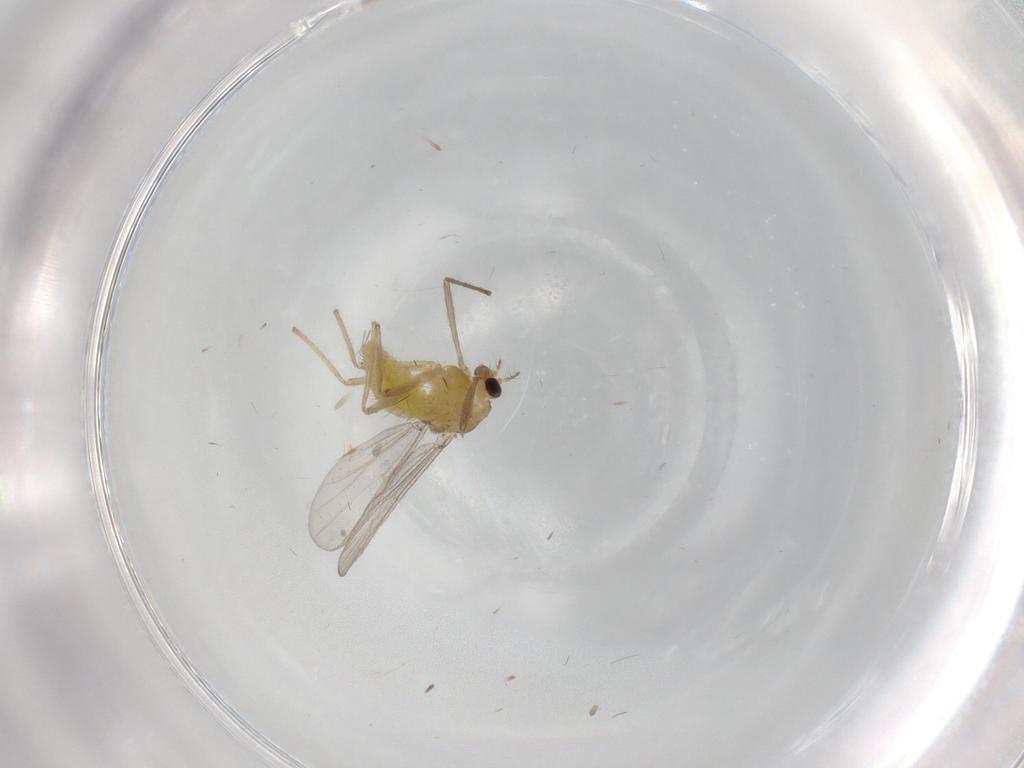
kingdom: Animalia
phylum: Arthropoda
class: Insecta
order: Diptera
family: Chironomidae
